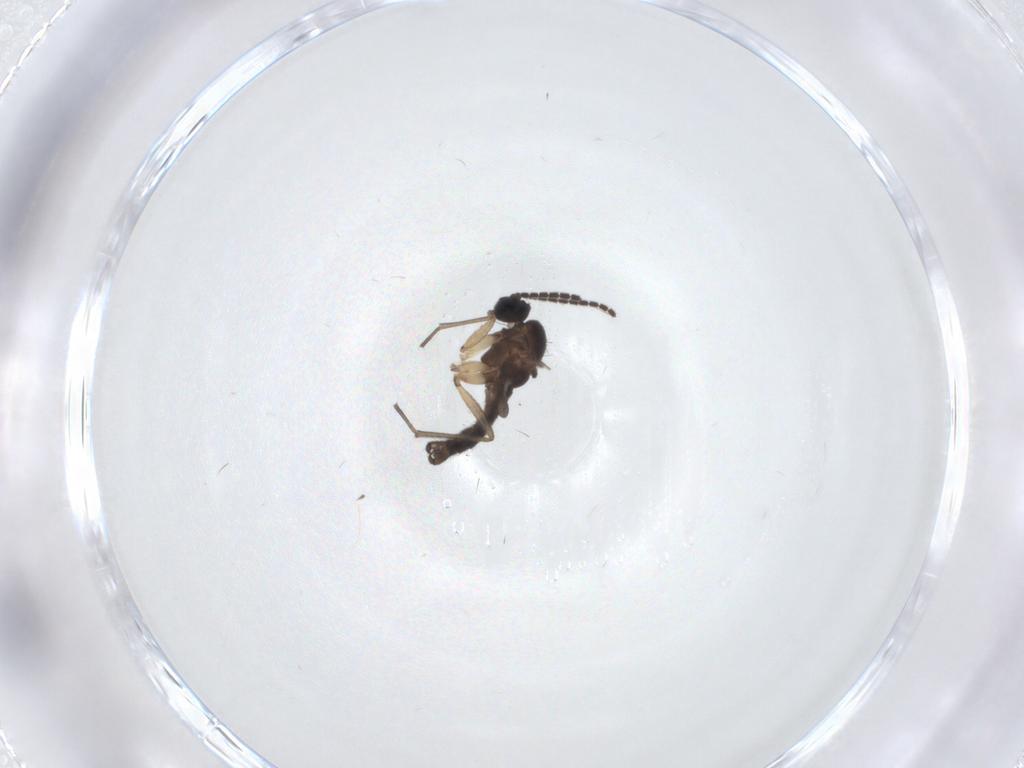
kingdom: Animalia
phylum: Arthropoda
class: Insecta
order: Diptera
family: Sciaridae
